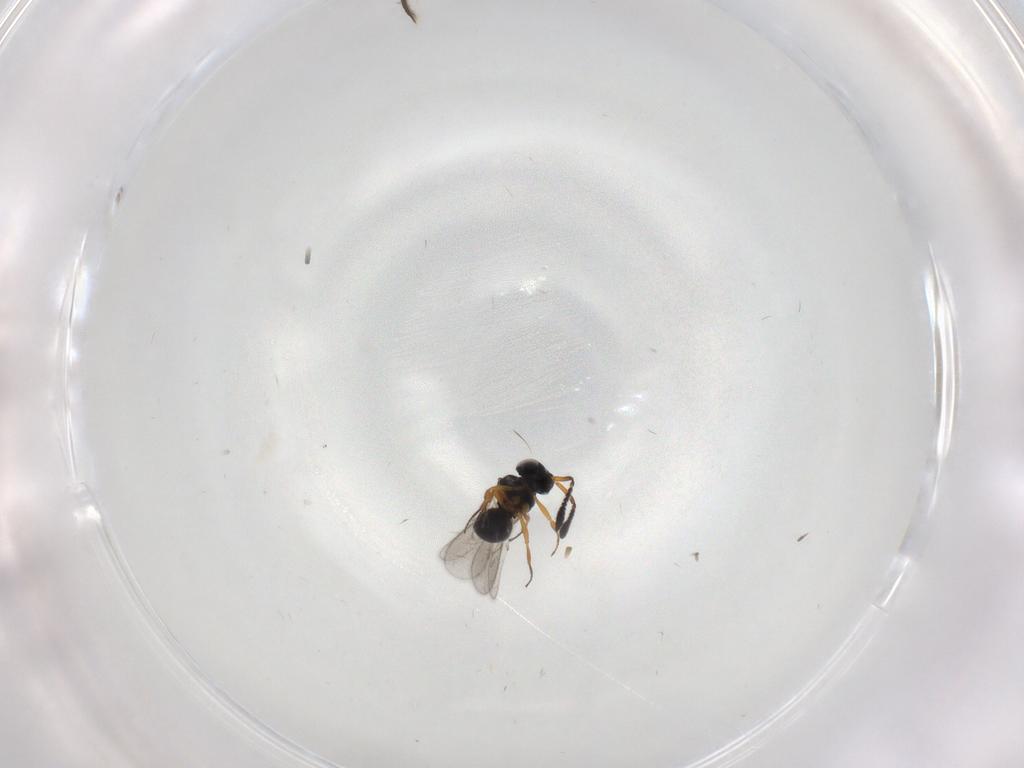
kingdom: Animalia
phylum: Arthropoda
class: Insecta
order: Hymenoptera
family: Scelionidae
